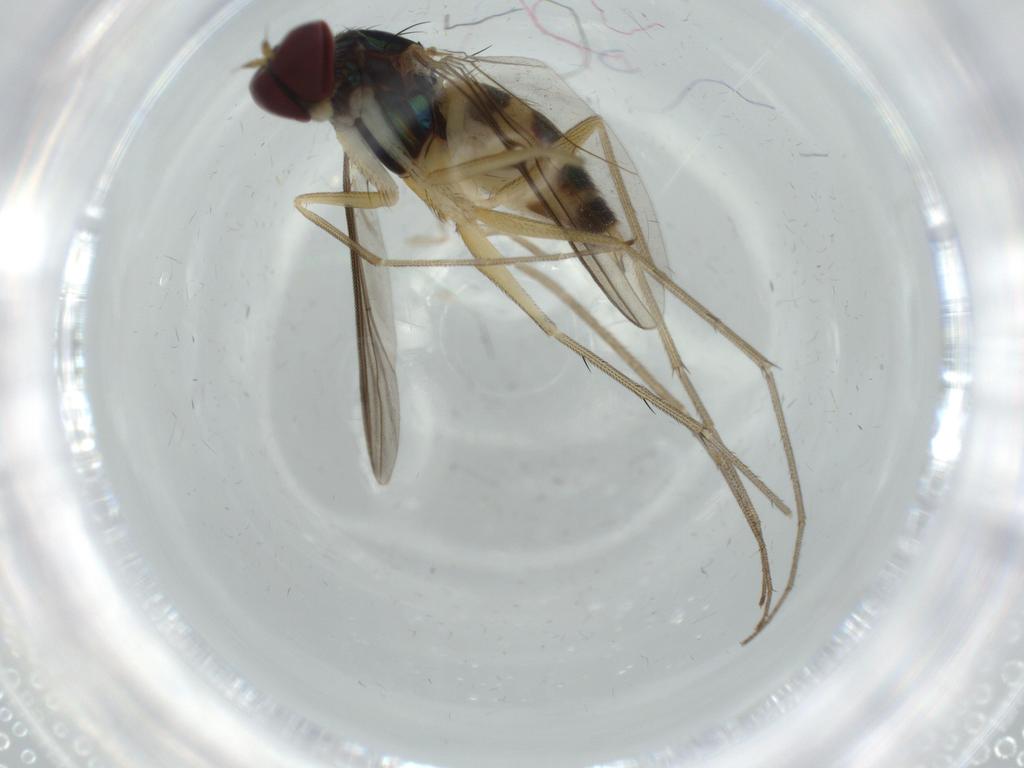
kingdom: Animalia
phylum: Arthropoda
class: Insecta
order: Diptera
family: Dolichopodidae
